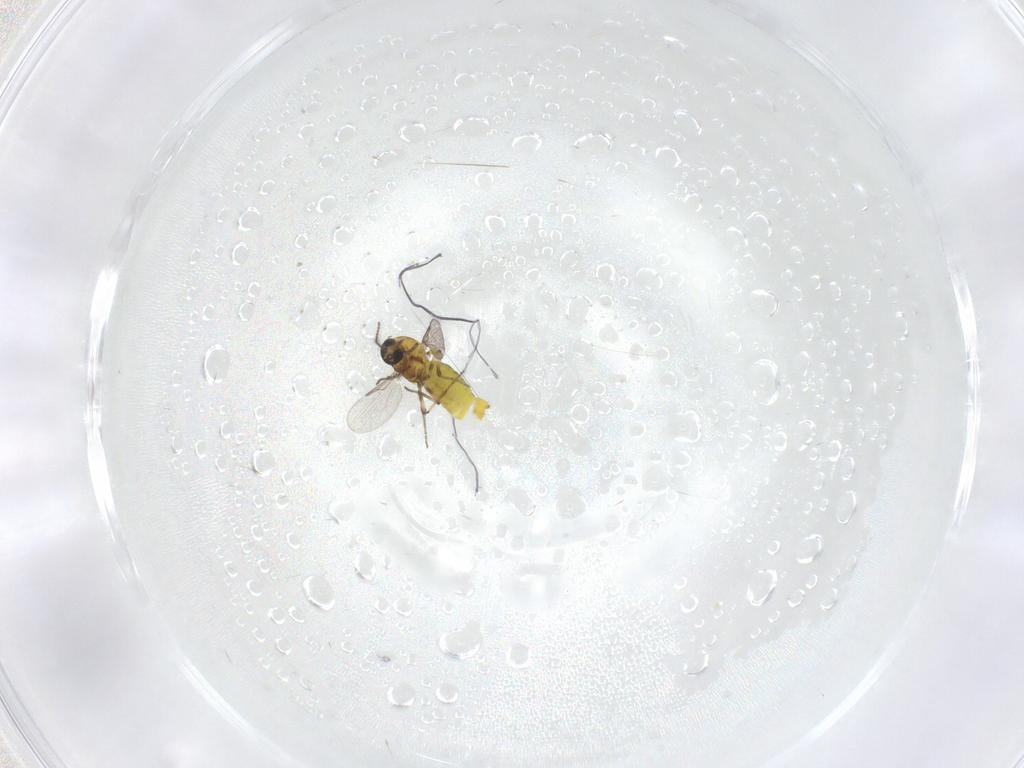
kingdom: Animalia
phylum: Arthropoda
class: Insecta
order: Diptera
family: Ceratopogonidae
